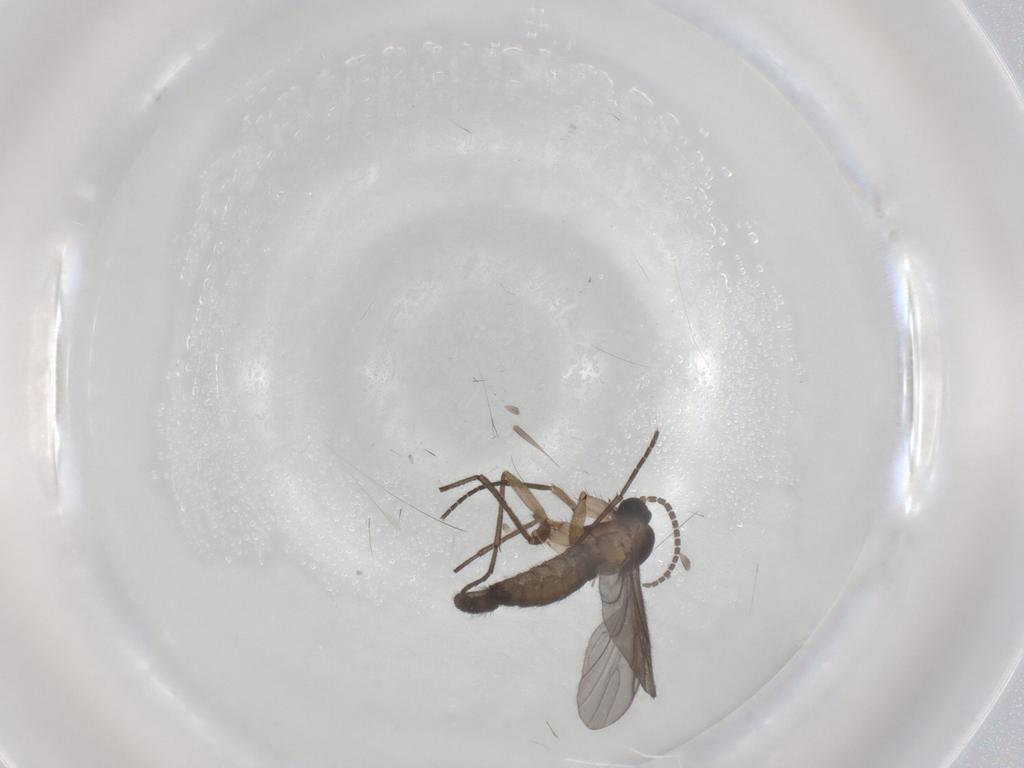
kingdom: Animalia
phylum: Arthropoda
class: Insecta
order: Diptera
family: Sciaridae
